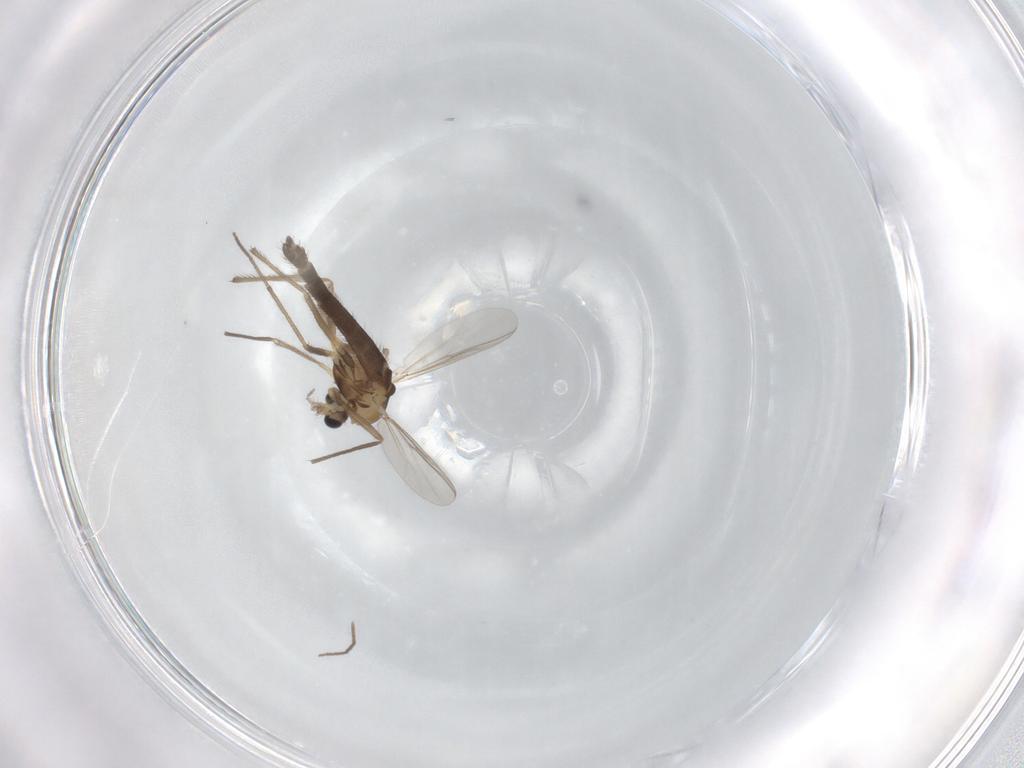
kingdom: Animalia
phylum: Arthropoda
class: Insecta
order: Diptera
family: Chironomidae
